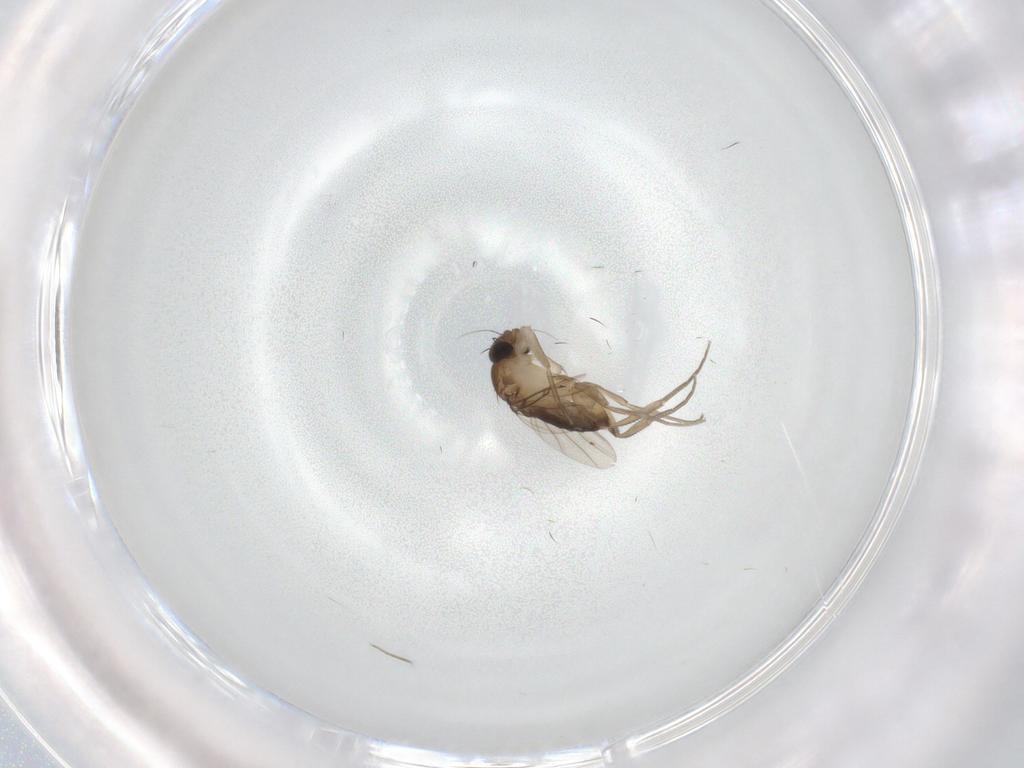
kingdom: Animalia
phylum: Arthropoda
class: Insecta
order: Diptera
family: Phoridae
